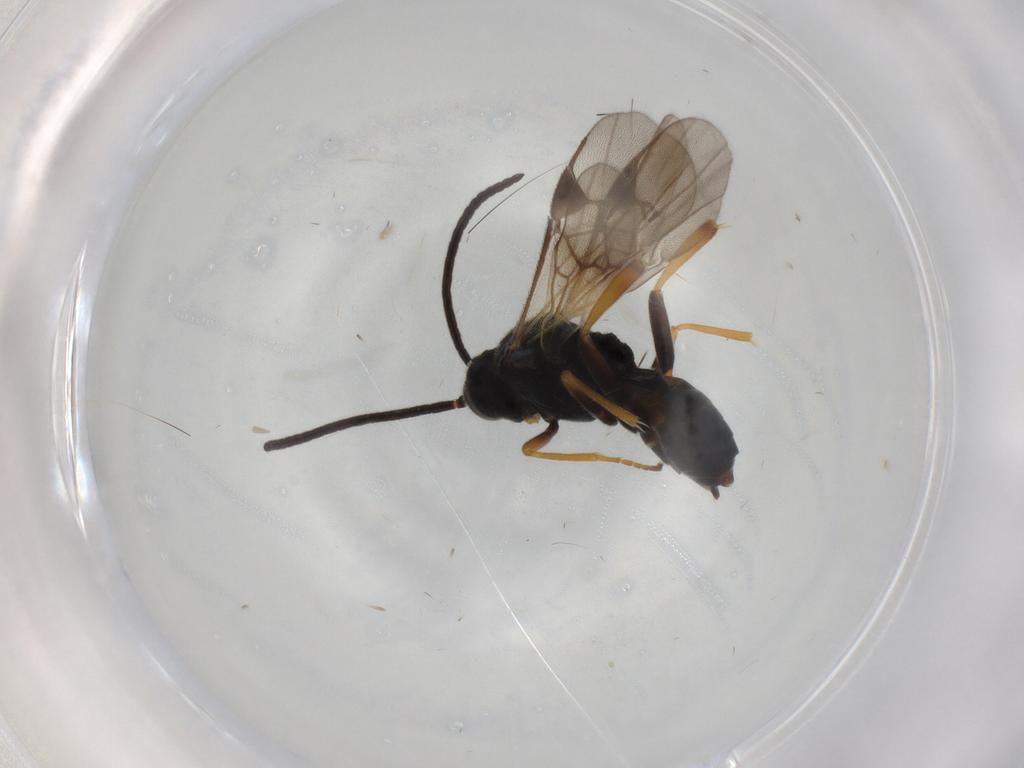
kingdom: Animalia
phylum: Arthropoda
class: Insecta
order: Hymenoptera
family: Braconidae
